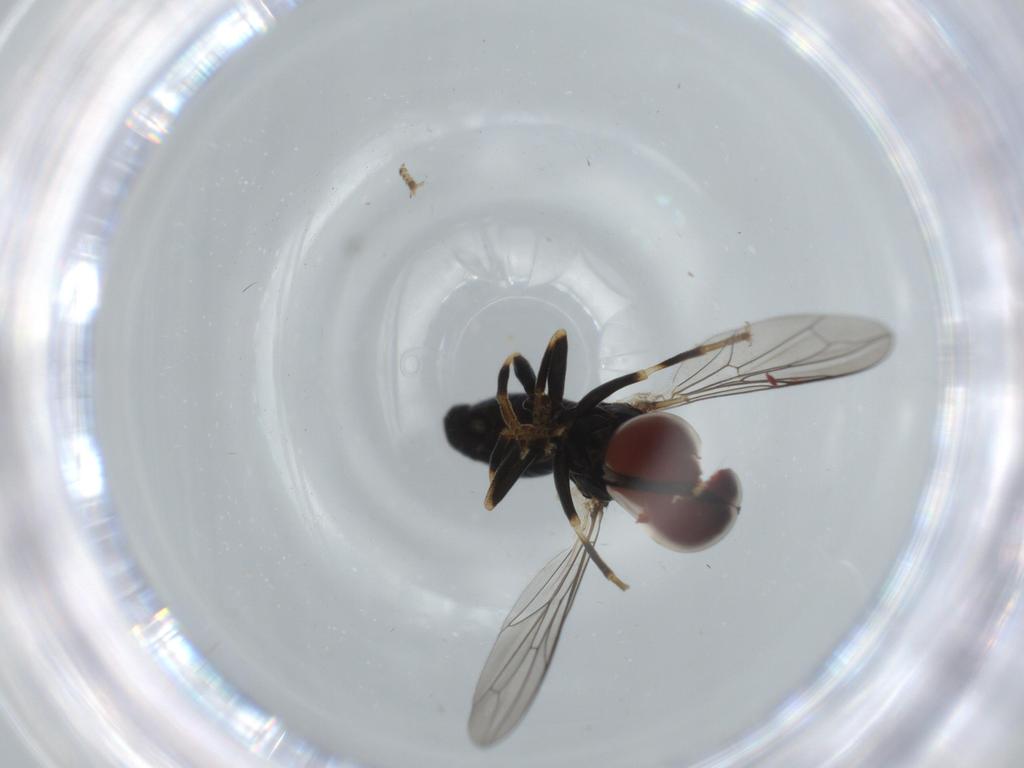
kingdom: Animalia
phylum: Arthropoda
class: Insecta
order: Diptera
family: Pipunculidae
